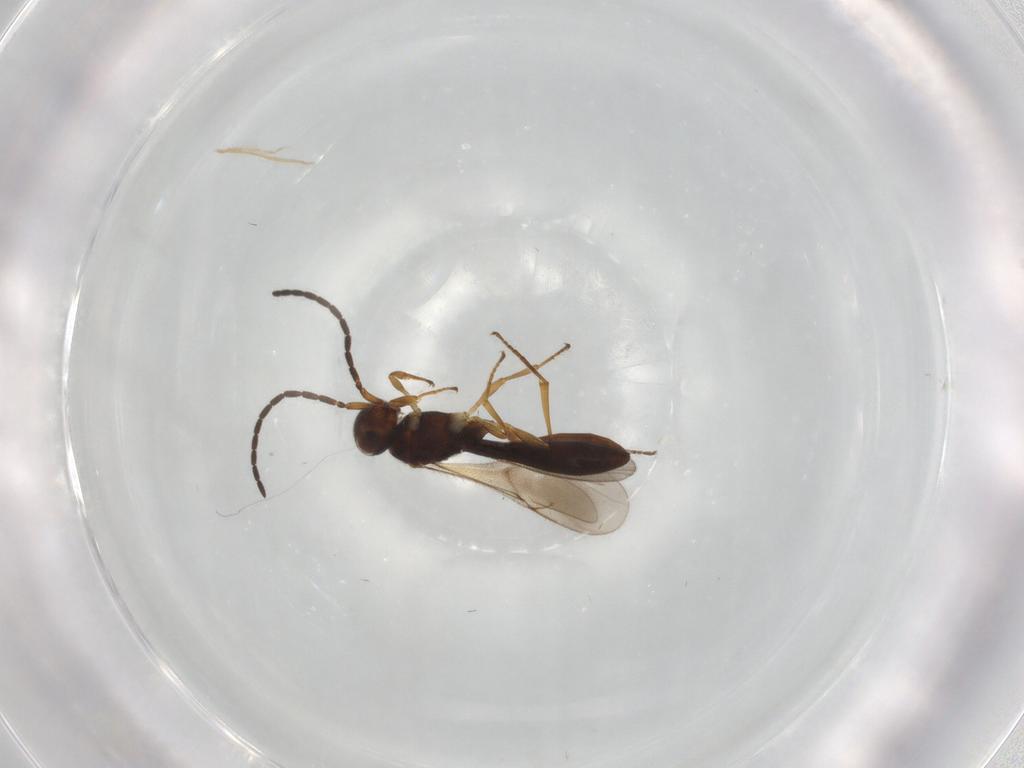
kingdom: Animalia
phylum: Arthropoda
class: Insecta
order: Hymenoptera
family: Scelionidae
